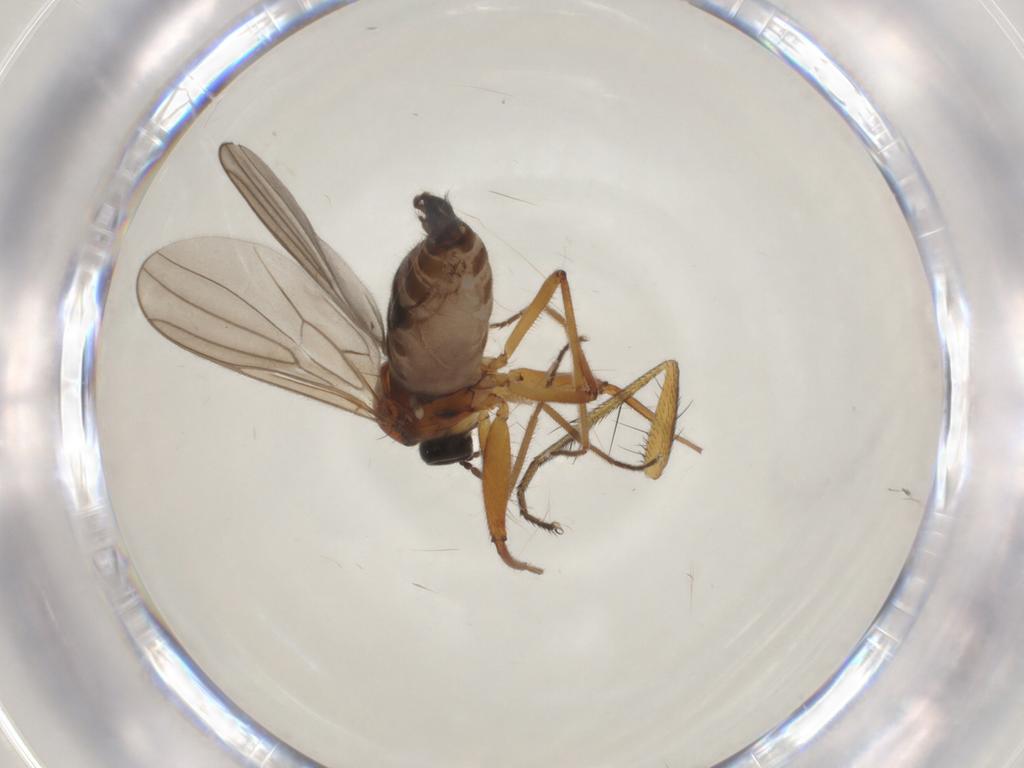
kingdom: Animalia
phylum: Arthropoda
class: Insecta
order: Diptera
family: Hybotidae
